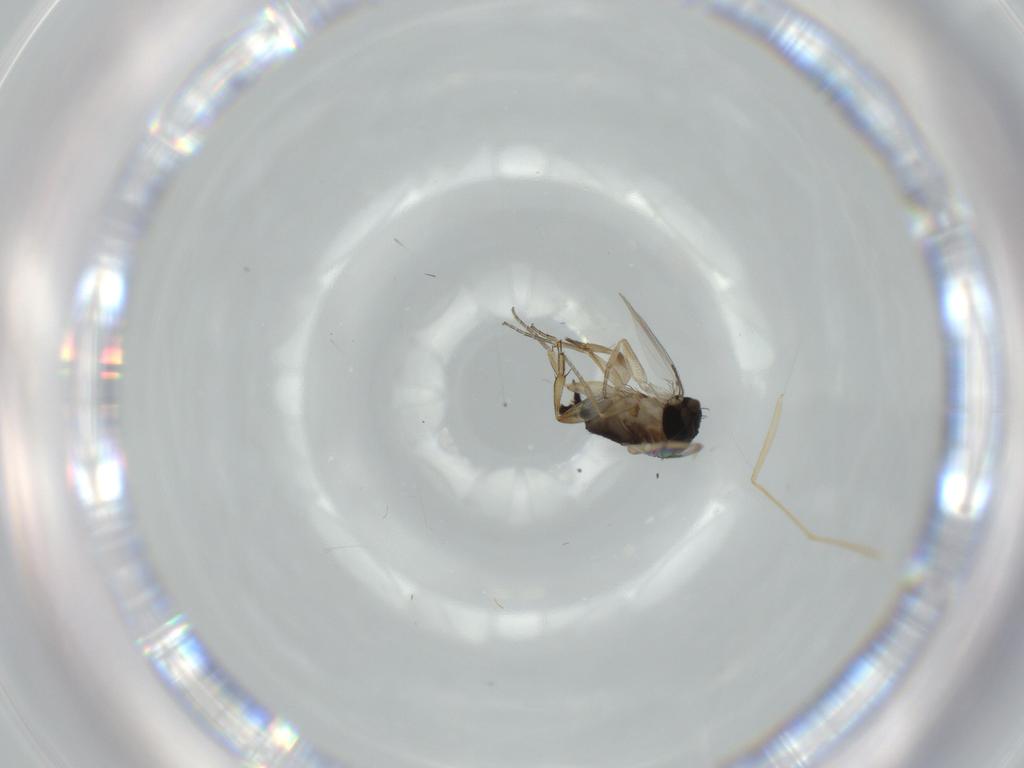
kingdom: Animalia
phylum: Arthropoda
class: Insecta
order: Diptera
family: Phoridae
